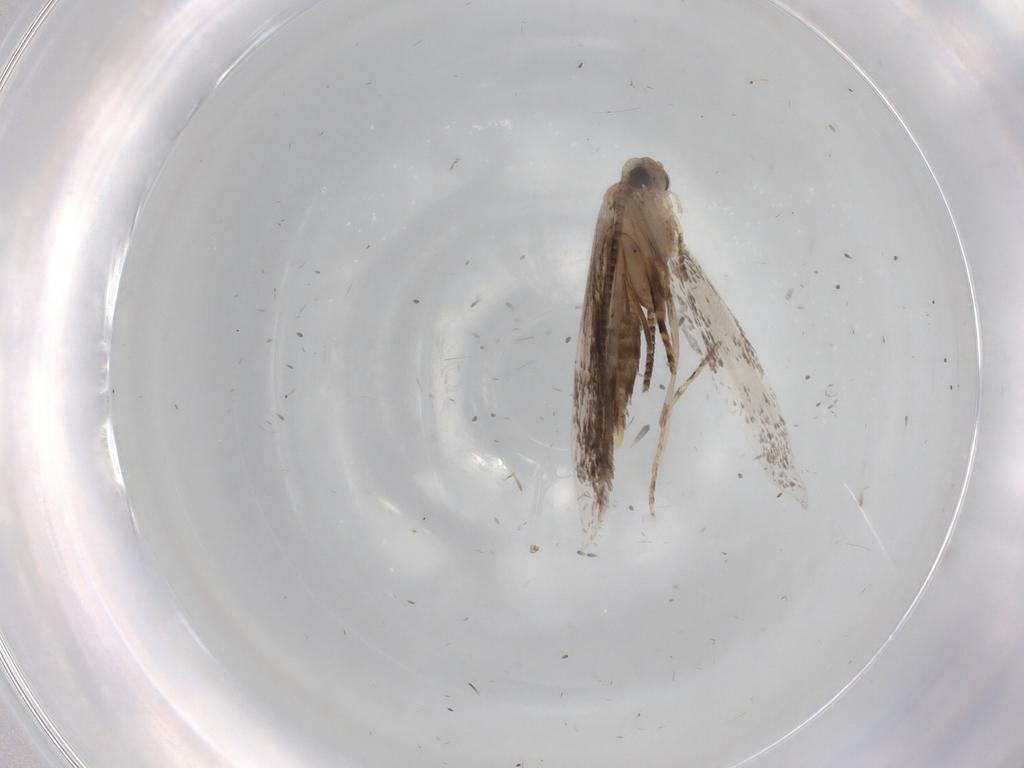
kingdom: Animalia
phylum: Arthropoda
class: Insecta
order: Lepidoptera
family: Tineidae
